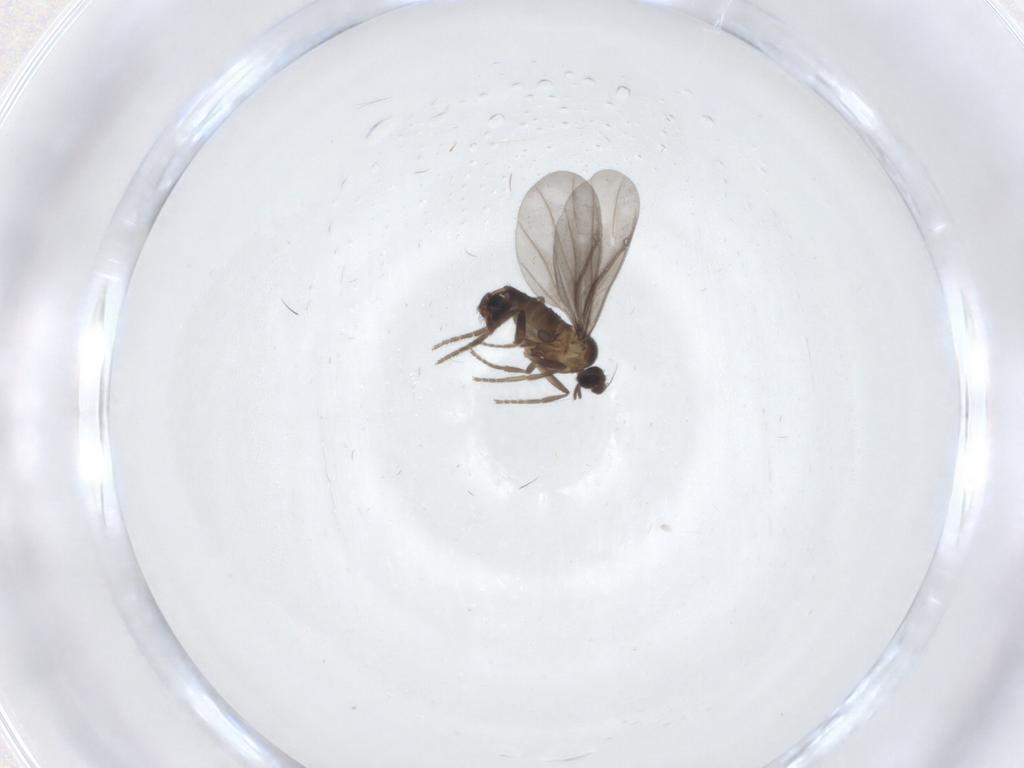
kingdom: Animalia
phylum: Arthropoda
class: Insecta
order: Diptera
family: Phoridae
